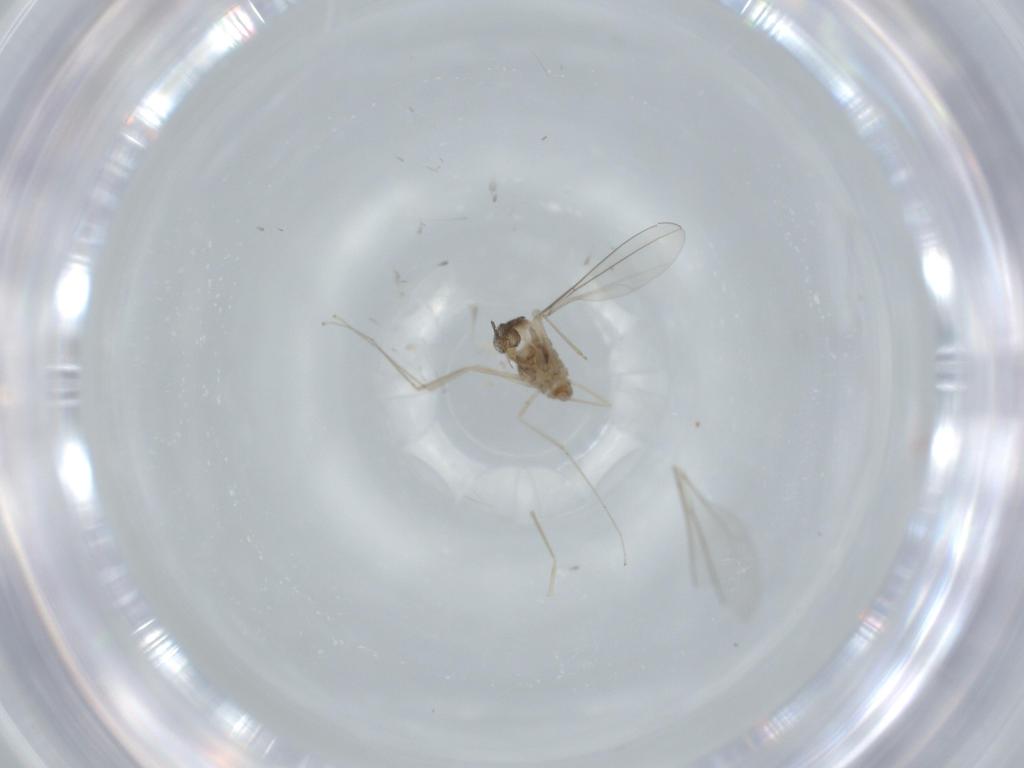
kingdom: Animalia
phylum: Arthropoda
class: Insecta
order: Diptera
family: Cecidomyiidae
